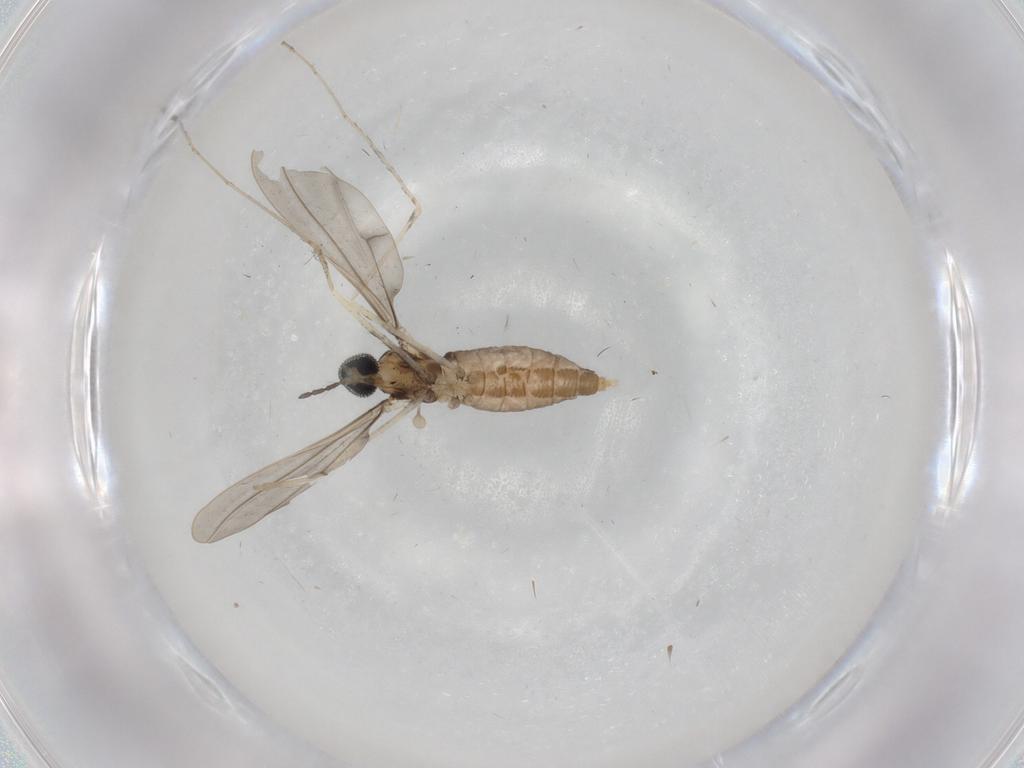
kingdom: Animalia
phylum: Arthropoda
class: Insecta
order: Diptera
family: Cecidomyiidae
